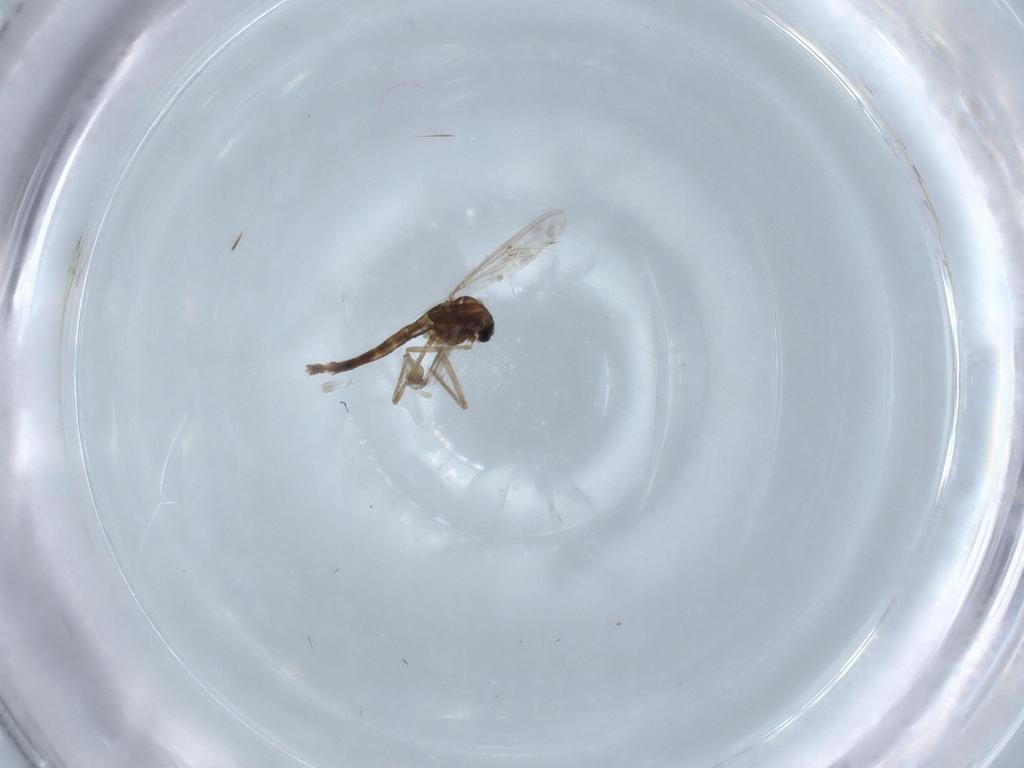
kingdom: Animalia
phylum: Arthropoda
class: Insecta
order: Diptera
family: Chironomidae
